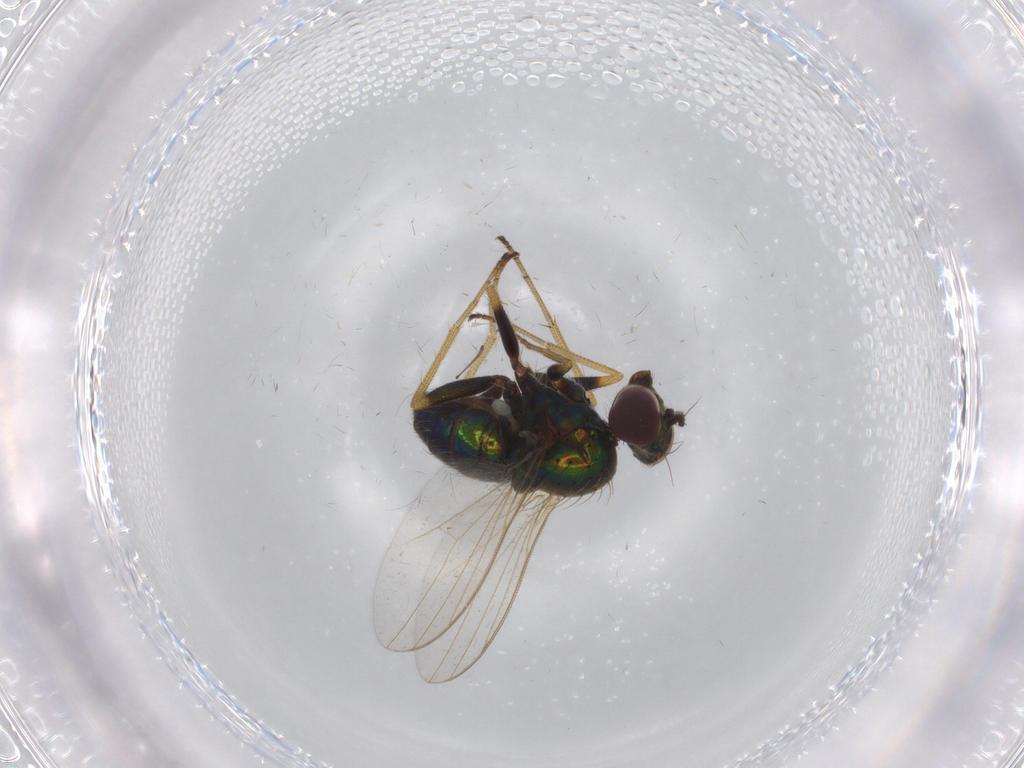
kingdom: Animalia
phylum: Arthropoda
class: Insecta
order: Diptera
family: Dolichopodidae
